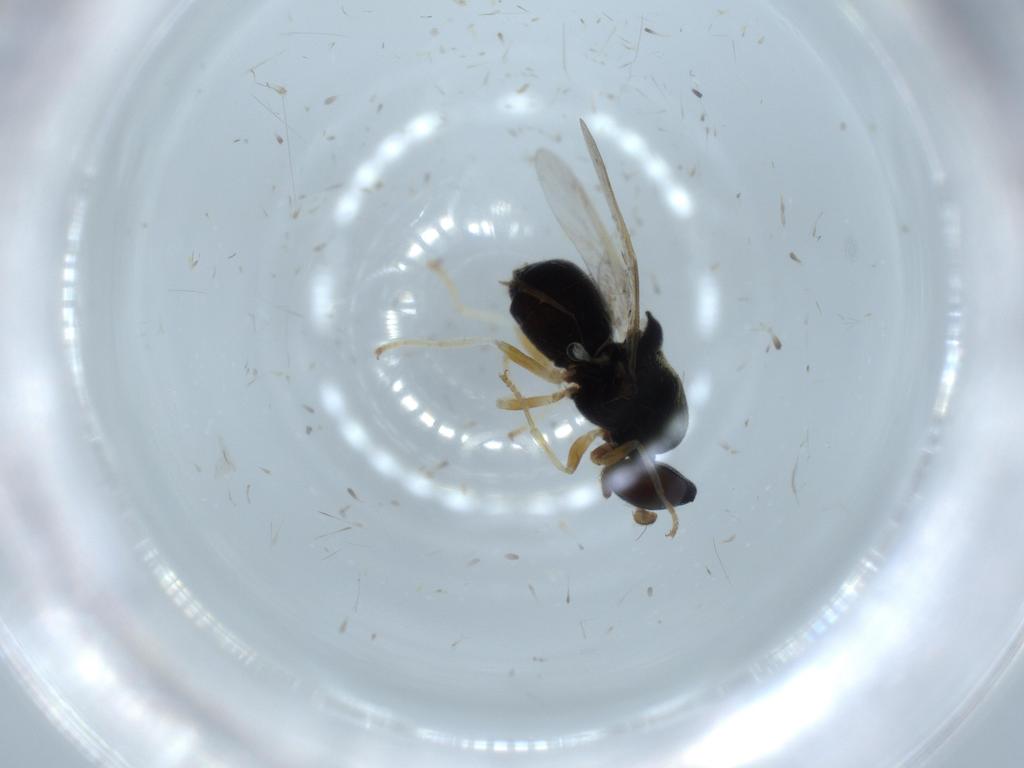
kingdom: Animalia
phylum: Arthropoda
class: Insecta
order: Diptera
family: Stratiomyidae
